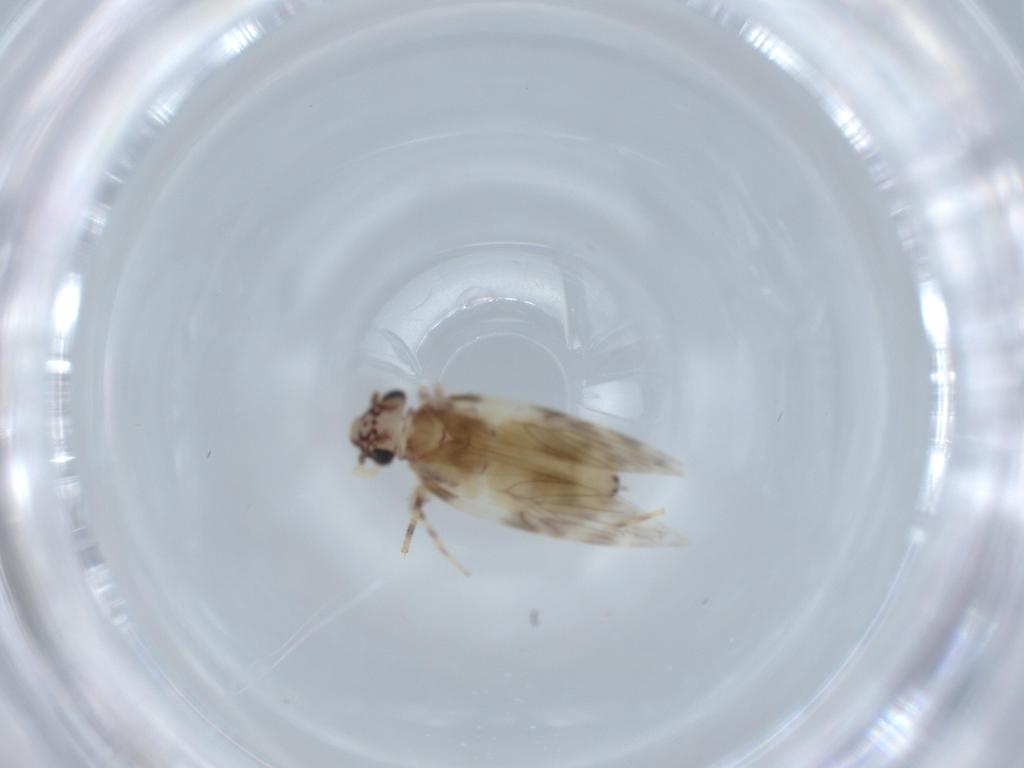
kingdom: Animalia
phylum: Arthropoda
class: Insecta
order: Psocodea
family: Lepidopsocidae
